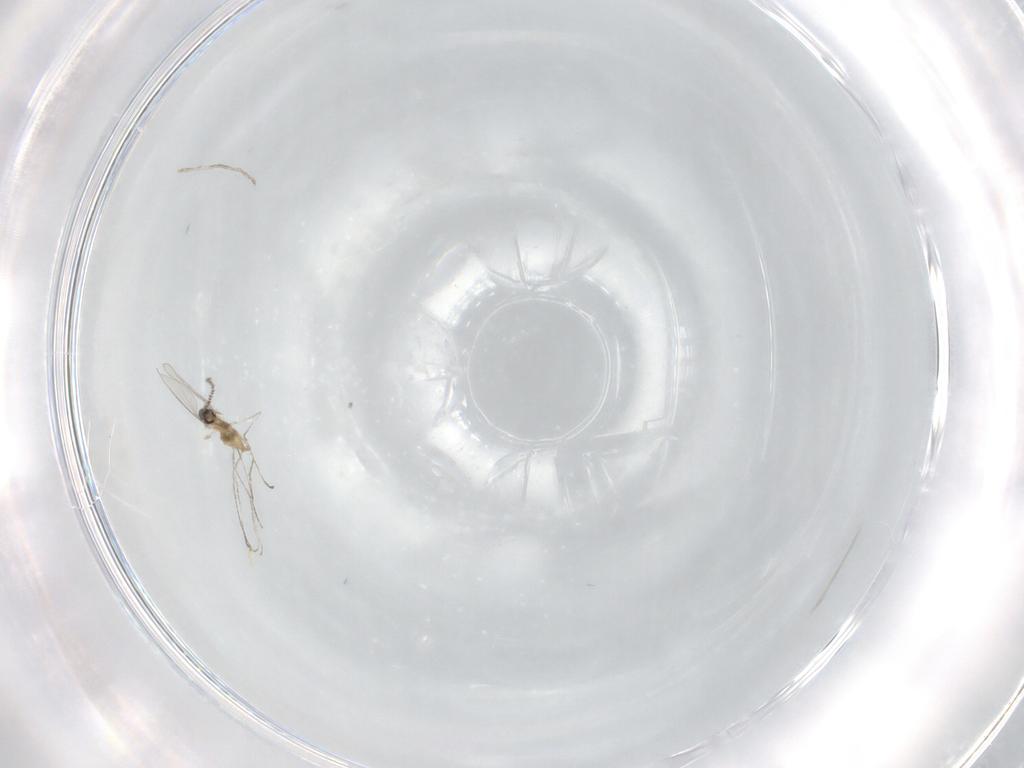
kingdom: Animalia
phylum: Arthropoda
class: Insecta
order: Diptera
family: Cecidomyiidae
